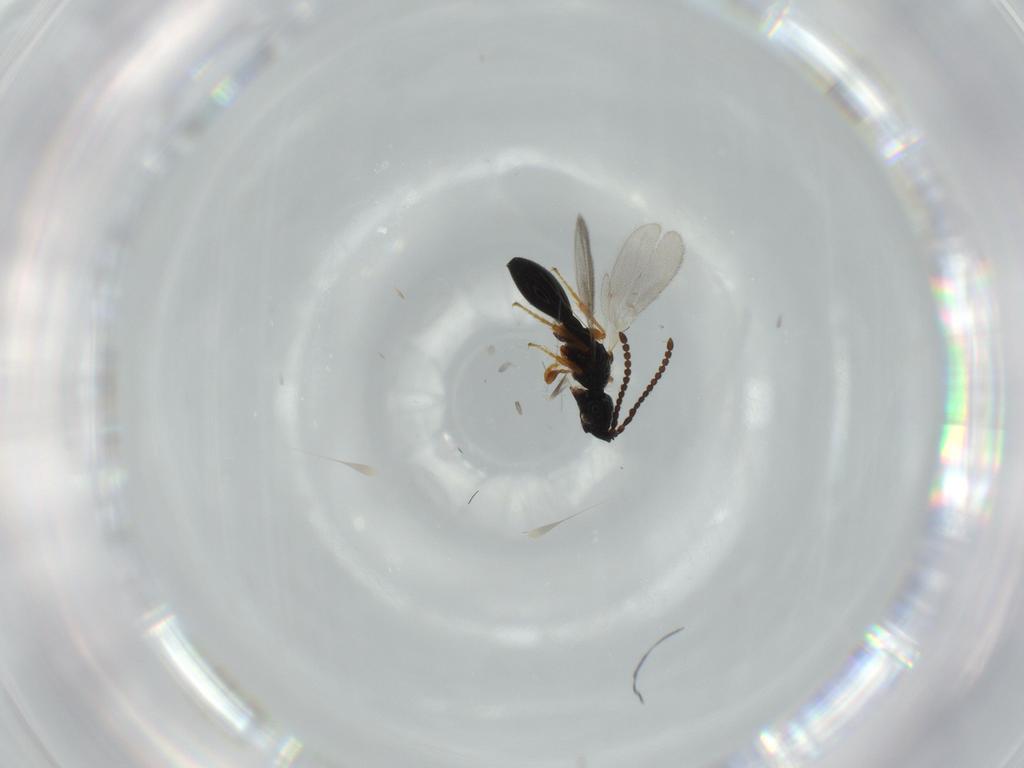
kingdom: Animalia
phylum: Arthropoda
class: Insecta
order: Hymenoptera
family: Diapriidae
